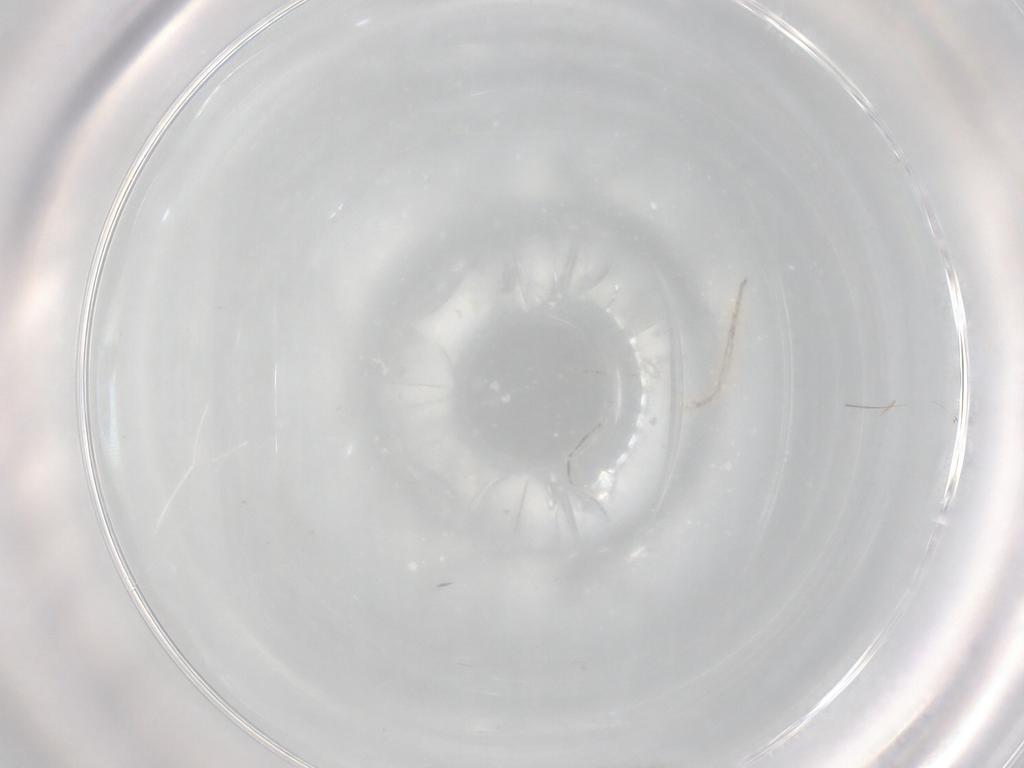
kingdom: Animalia
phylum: Arthropoda
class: Insecta
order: Diptera
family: Chironomidae
